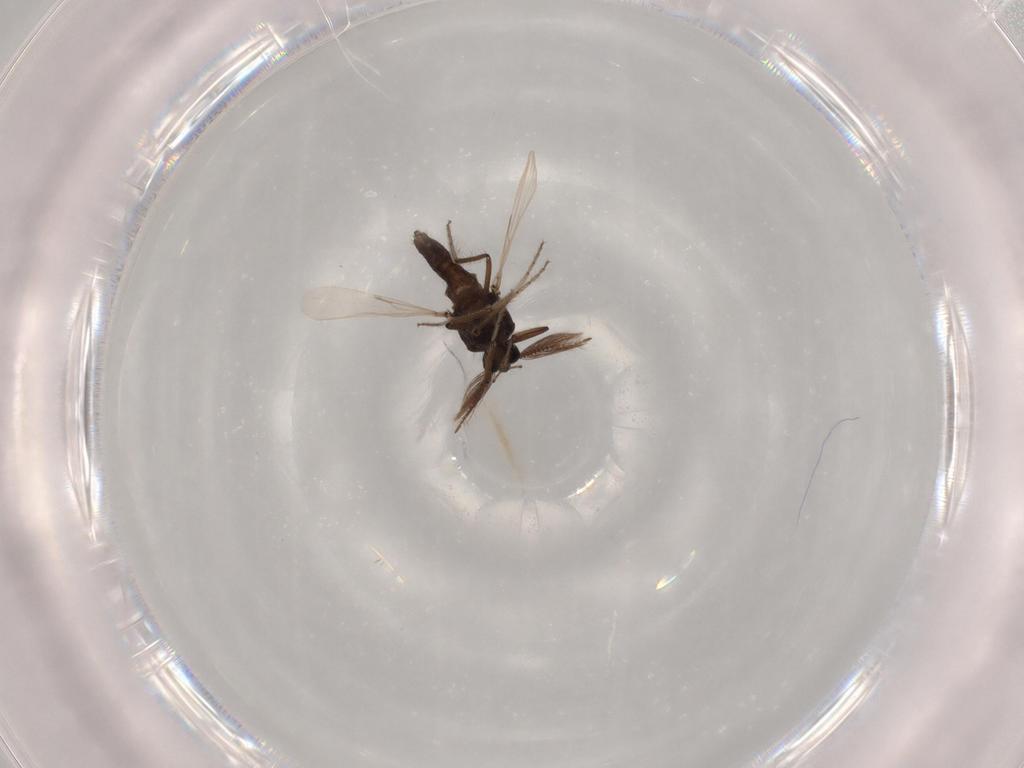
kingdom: Animalia
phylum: Arthropoda
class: Insecta
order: Diptera
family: Chironomidae
